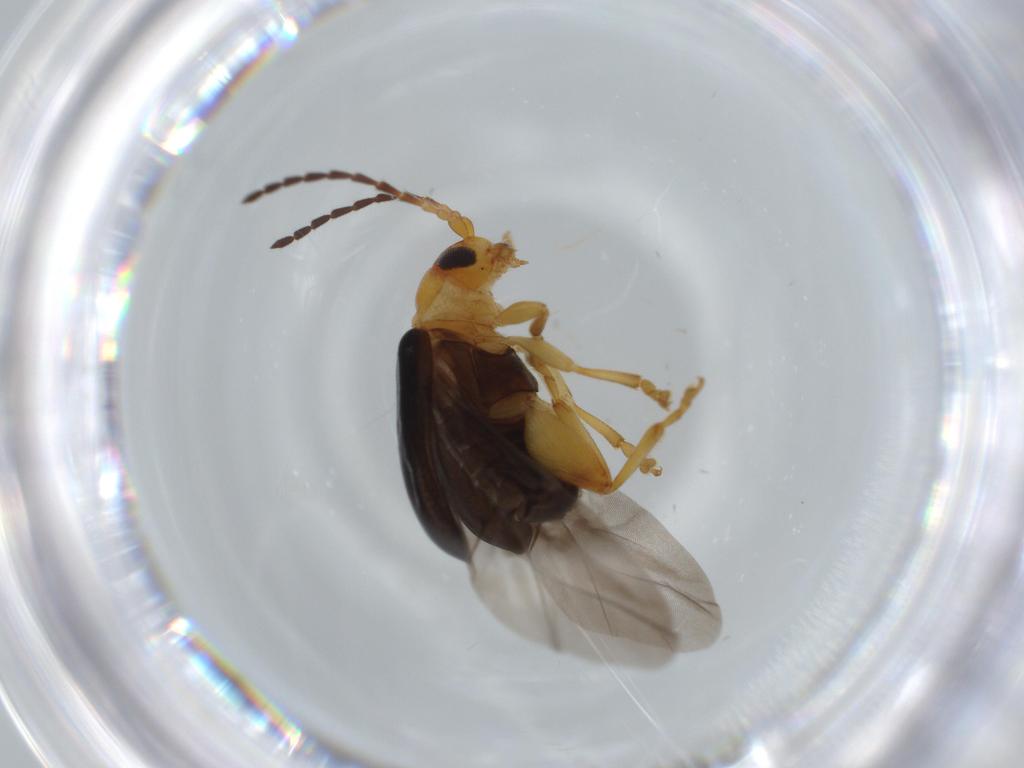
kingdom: Animalia
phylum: Arthropoda
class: Insecta
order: Coleoptera
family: Chrysomelidae
